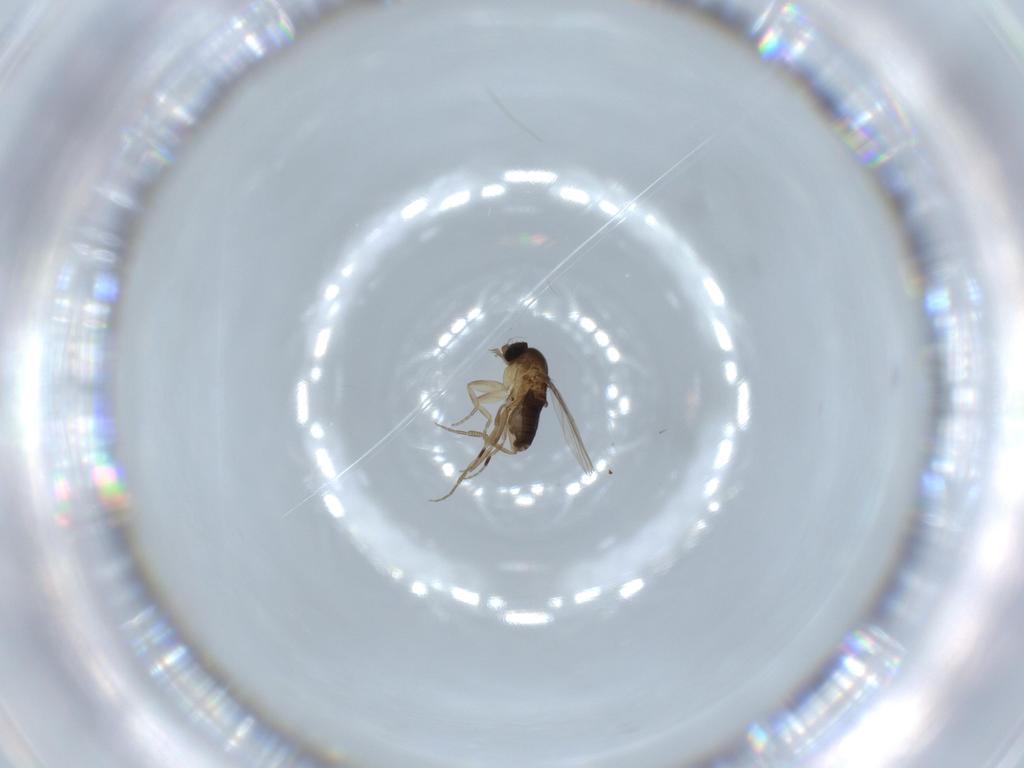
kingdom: Animalia
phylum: Arthropoda
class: Insecta
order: Diptera
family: Phoridae
